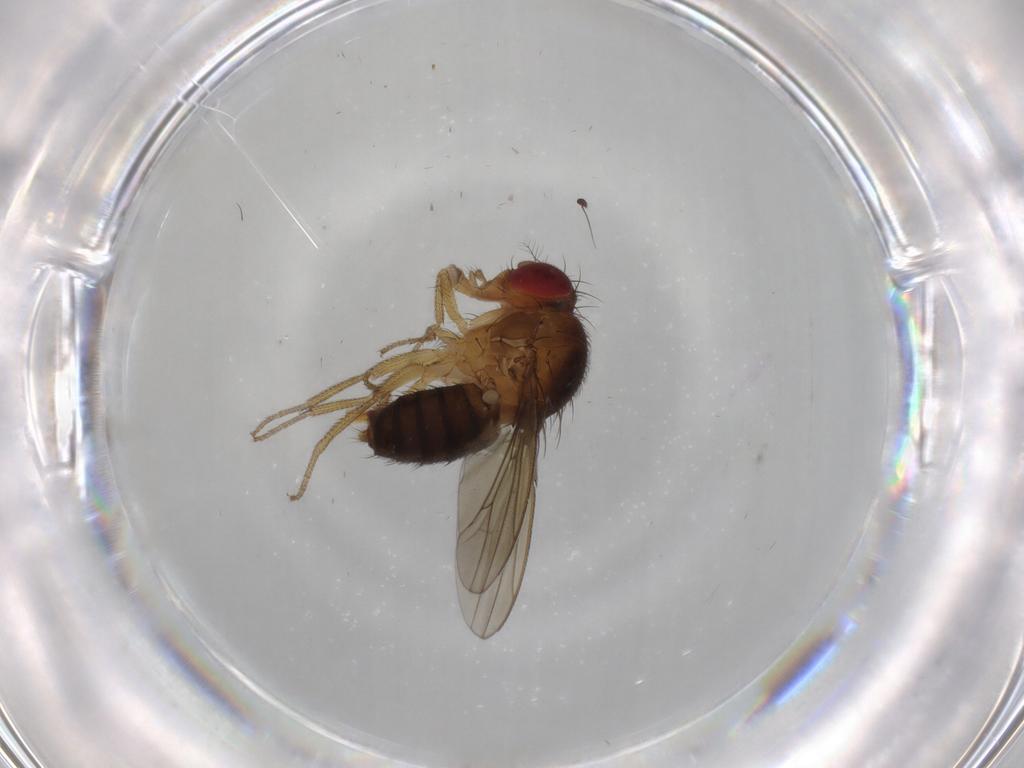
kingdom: Animalia
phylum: Arthropoda
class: Insecta
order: Diptera
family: Drosophilidae
